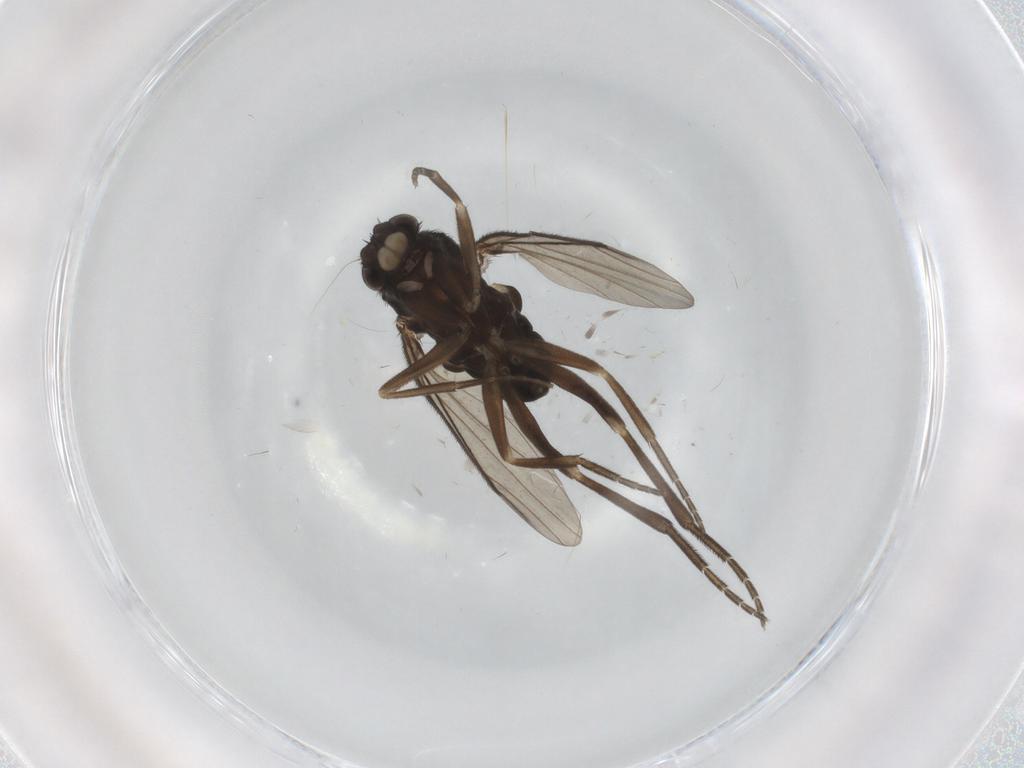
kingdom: Animalia
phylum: Arthropoda
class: Insecta
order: Diptera
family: Phoridae
